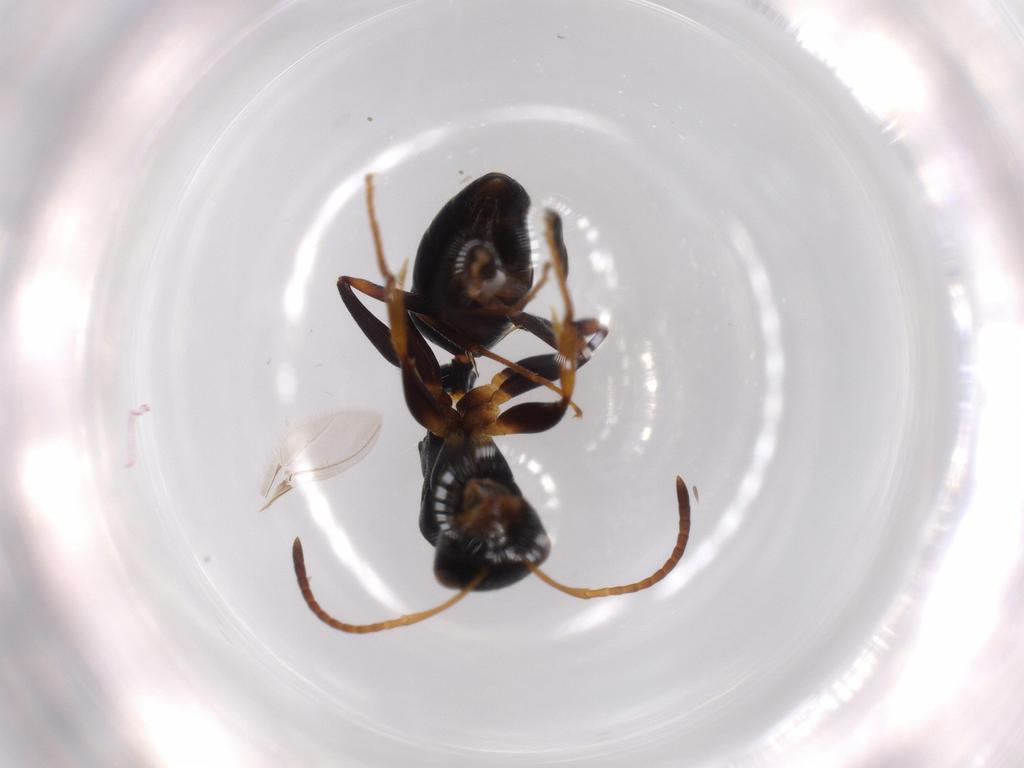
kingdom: Animalia
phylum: Arthropoda
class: Insecta
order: Hymenoptera
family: Formicidae
